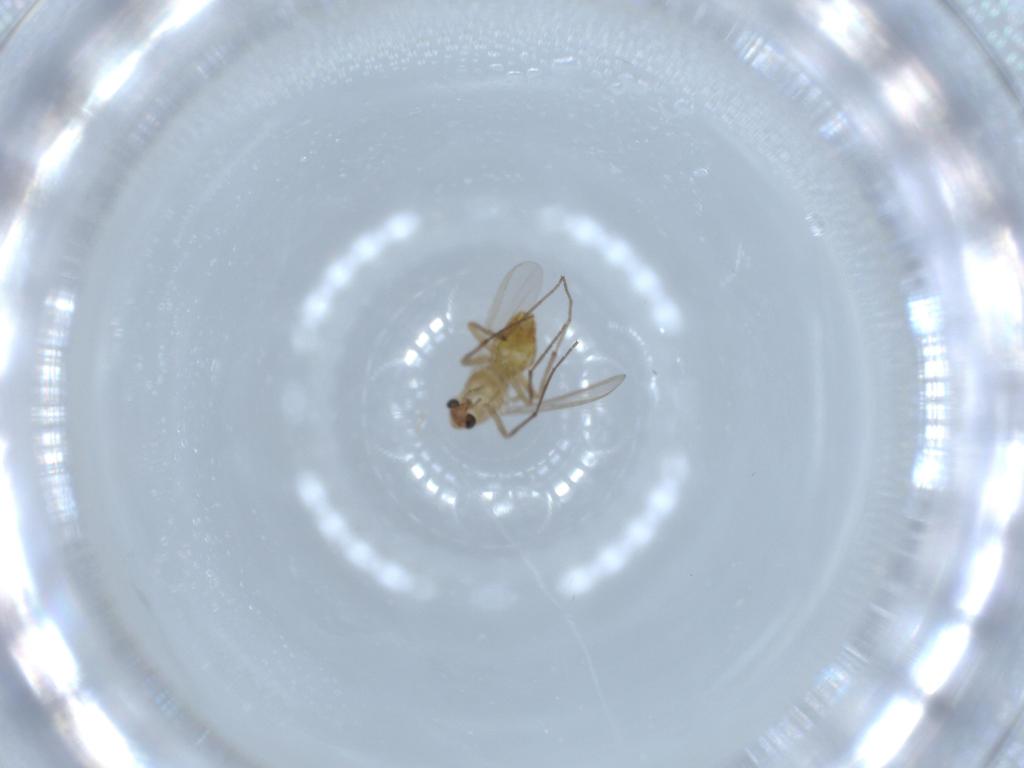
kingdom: Animalia
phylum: Arthropoda
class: Insecta
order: Diptera
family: Chironomidae
